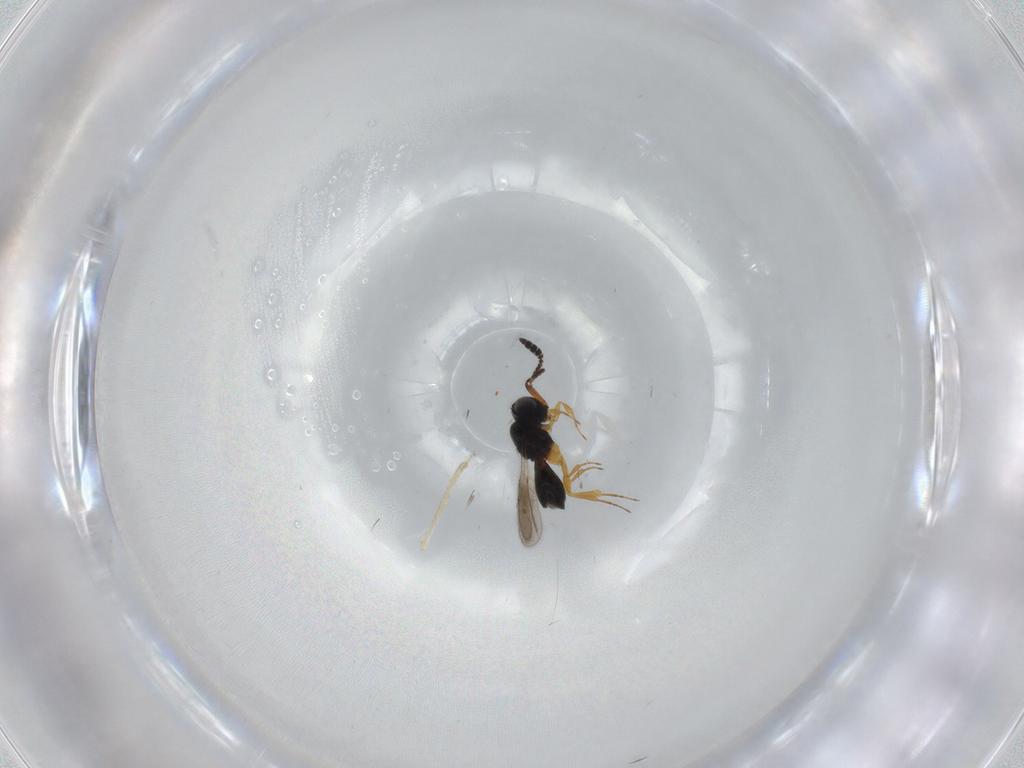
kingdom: Animalia
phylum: Arthropoda
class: Insecta
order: Hymenoptera
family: Scelionidae
